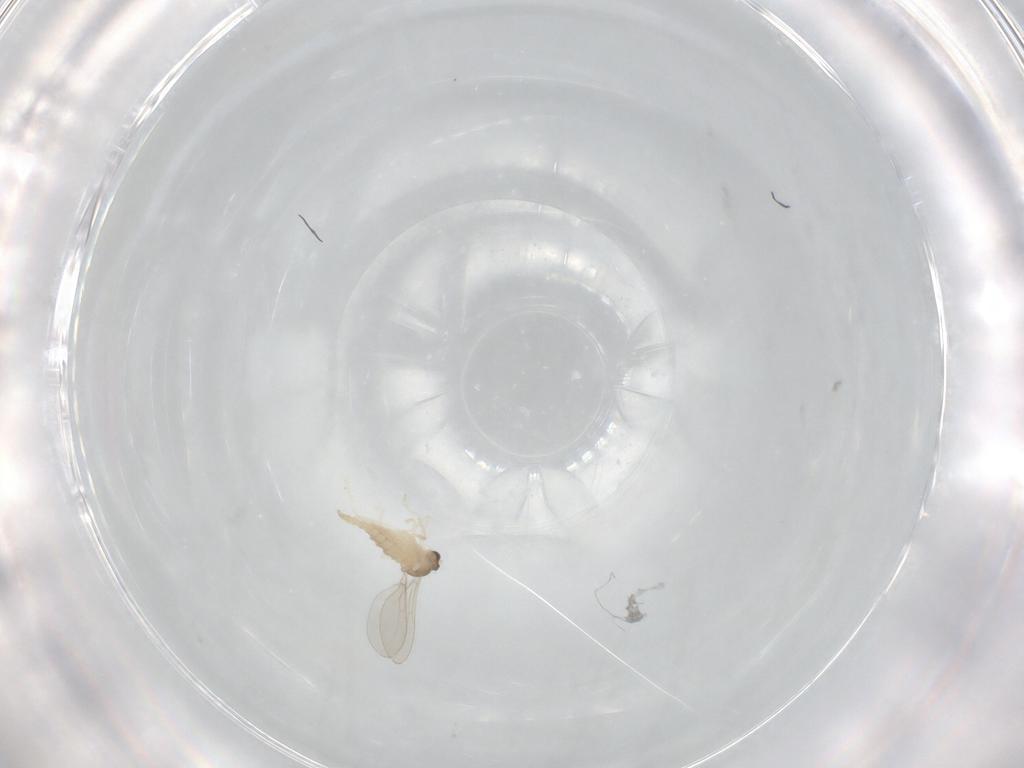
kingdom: Animalia
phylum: Arthropoda
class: Insecta
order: Diptera
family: Cecidomyiidae
